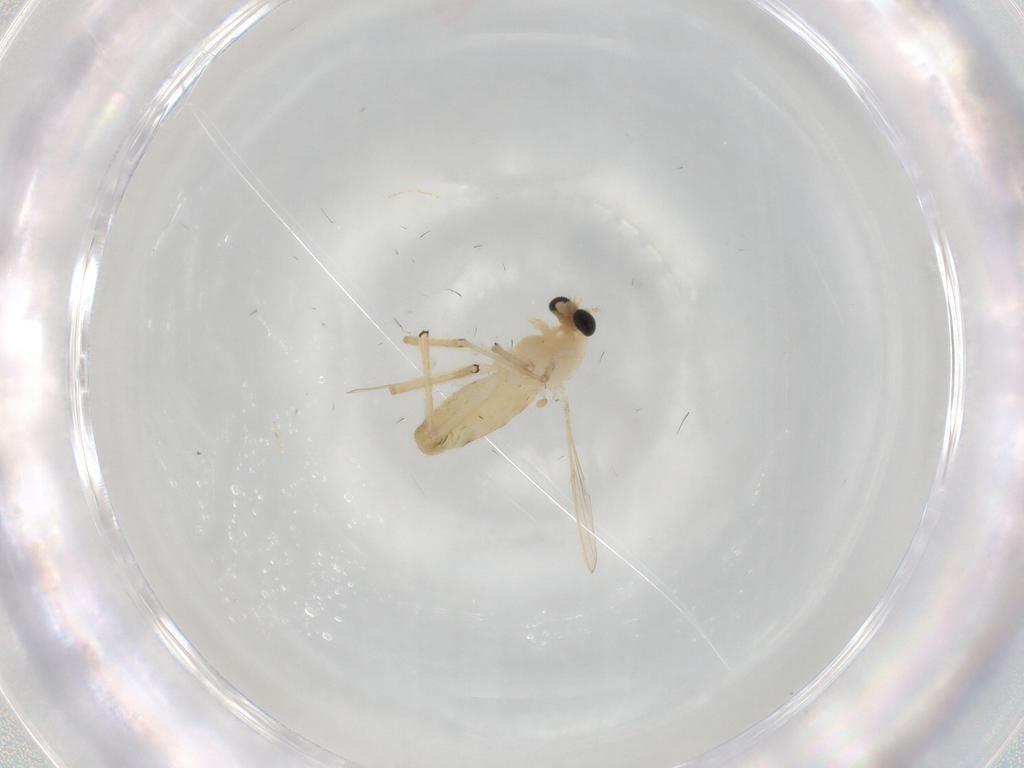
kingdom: Animalia
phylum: Arthropoda
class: Insecta
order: Diptera
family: Chironomidae
